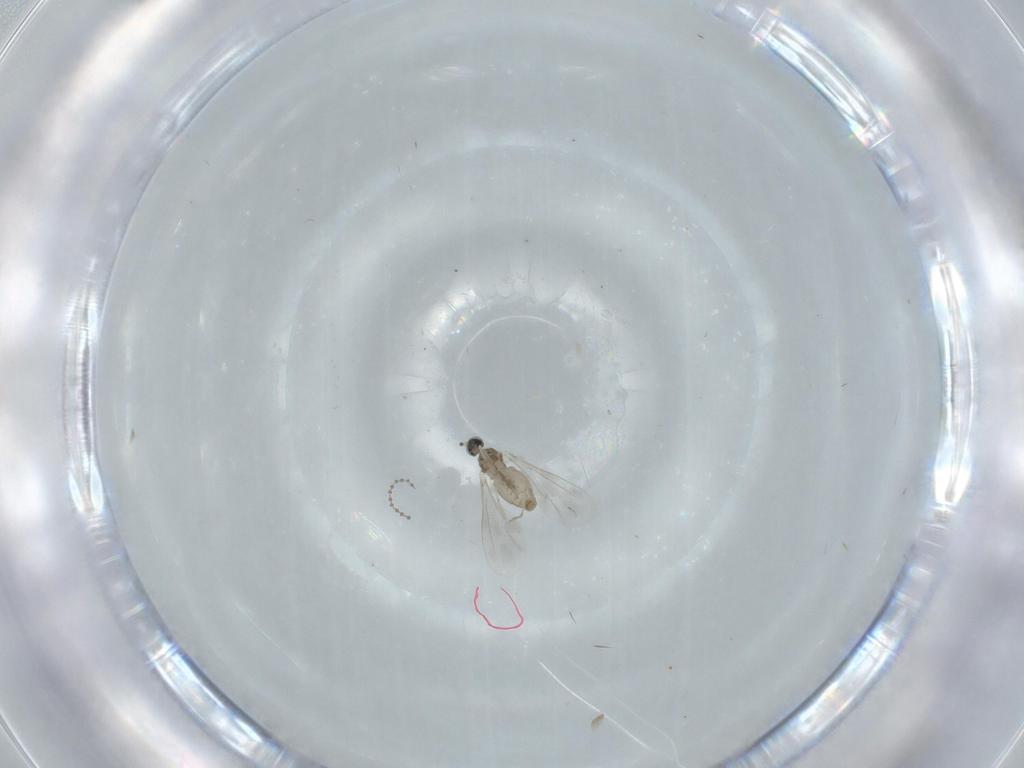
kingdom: Animalia
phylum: Arthropoda
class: Insecta
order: Diptera
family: Cecidomyiidae
